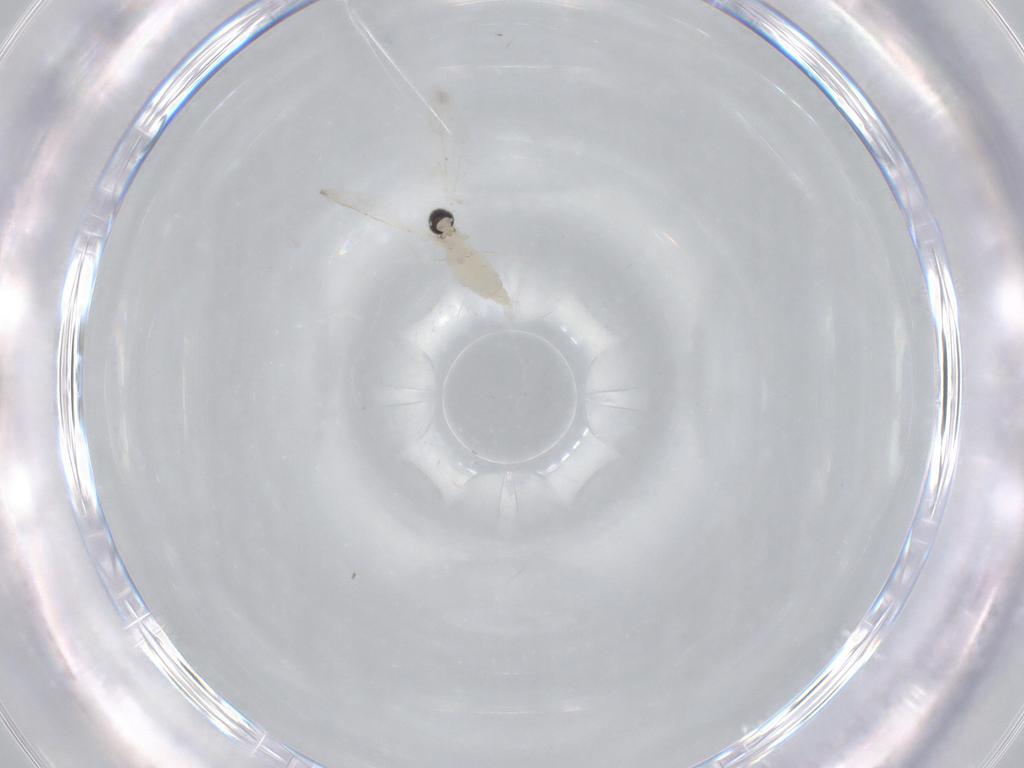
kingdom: Animalia
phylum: Arthropoda
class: Insecta
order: Diptera
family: Cecidomyiidae
